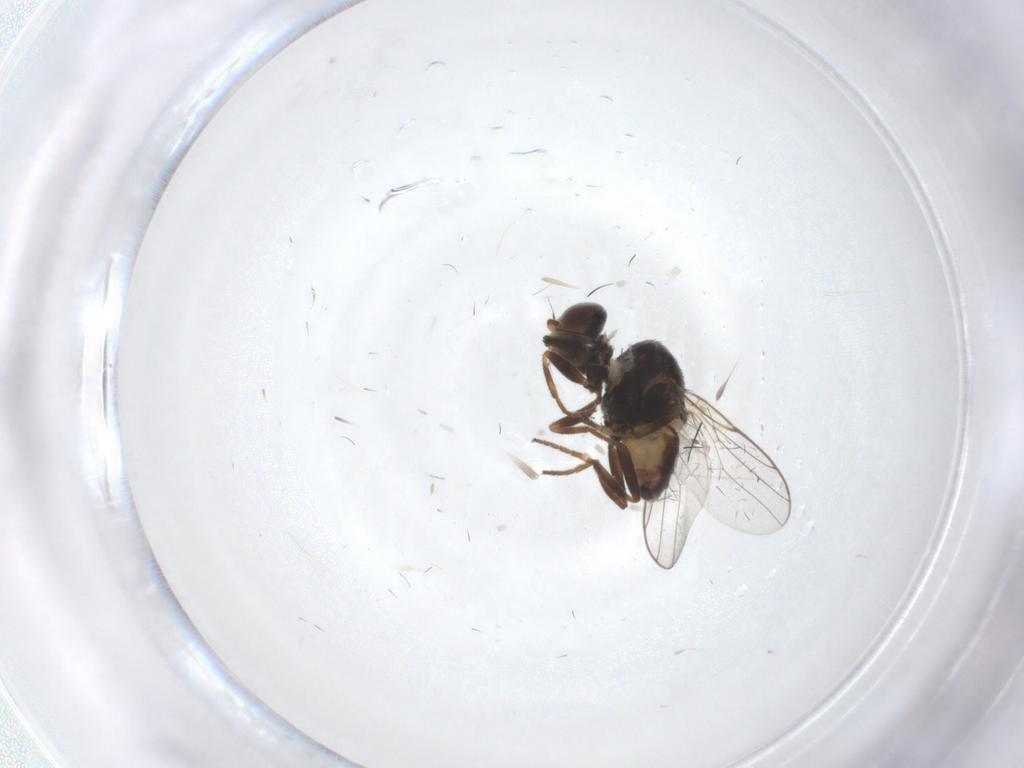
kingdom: Animalia
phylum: Arthropoda
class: Insecta
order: Diptera
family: Chloropidae
